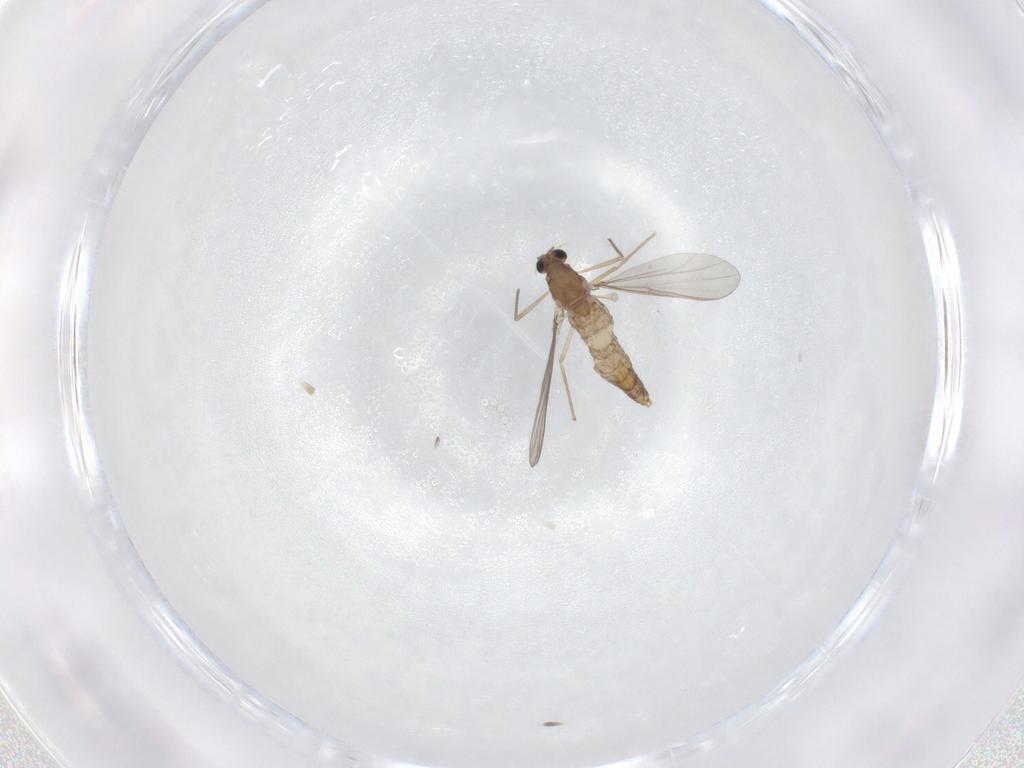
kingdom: Animalia
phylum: Arthropoda
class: Insecta
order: Diptera
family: Chironomidae
